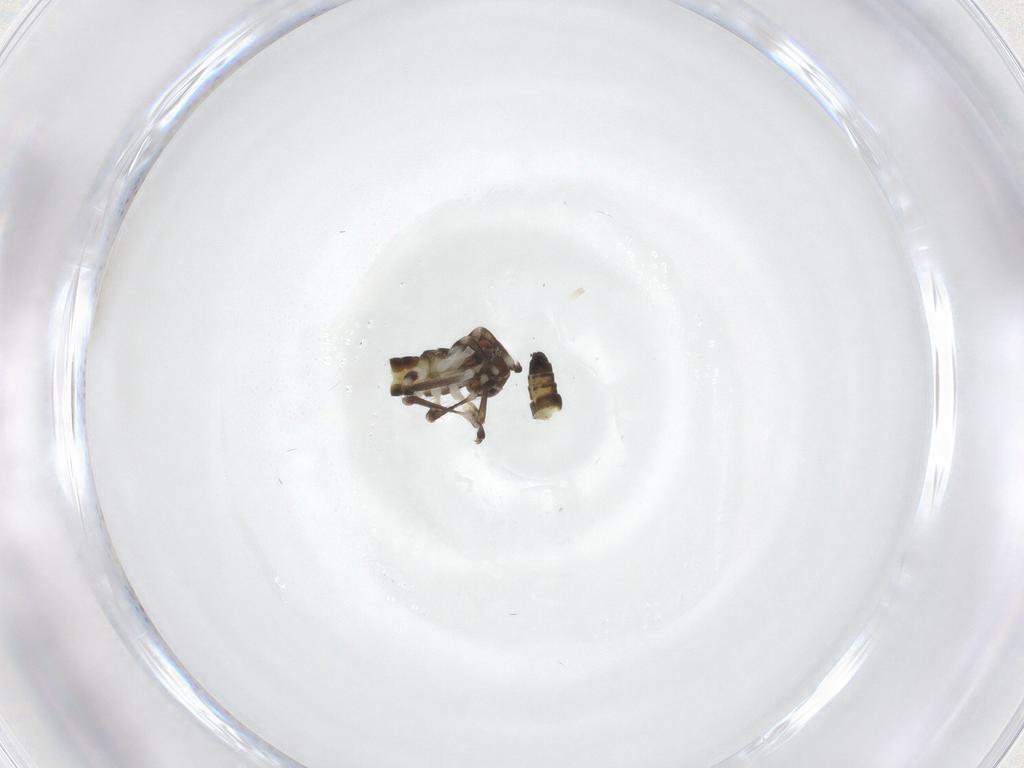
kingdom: Animalia
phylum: Arthropoda
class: Insecta
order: Hemiptera
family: Cicadellidae
